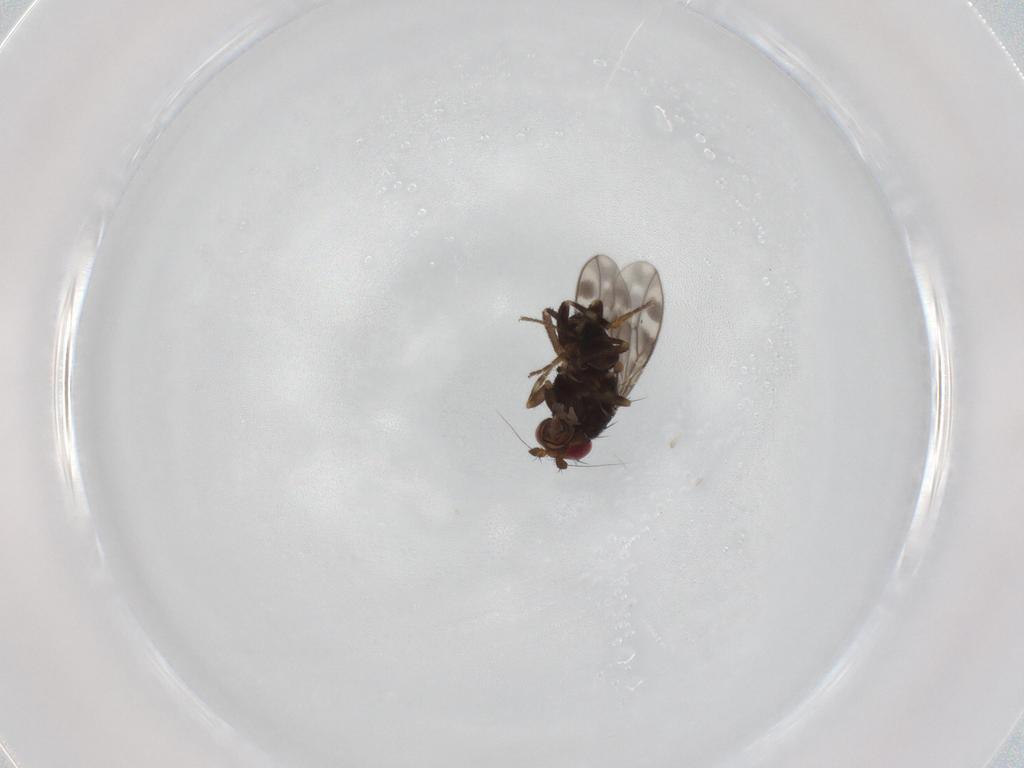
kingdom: Animalia
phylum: Arthropoda
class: Insecta
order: Diptera
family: Sphaeroceridae
